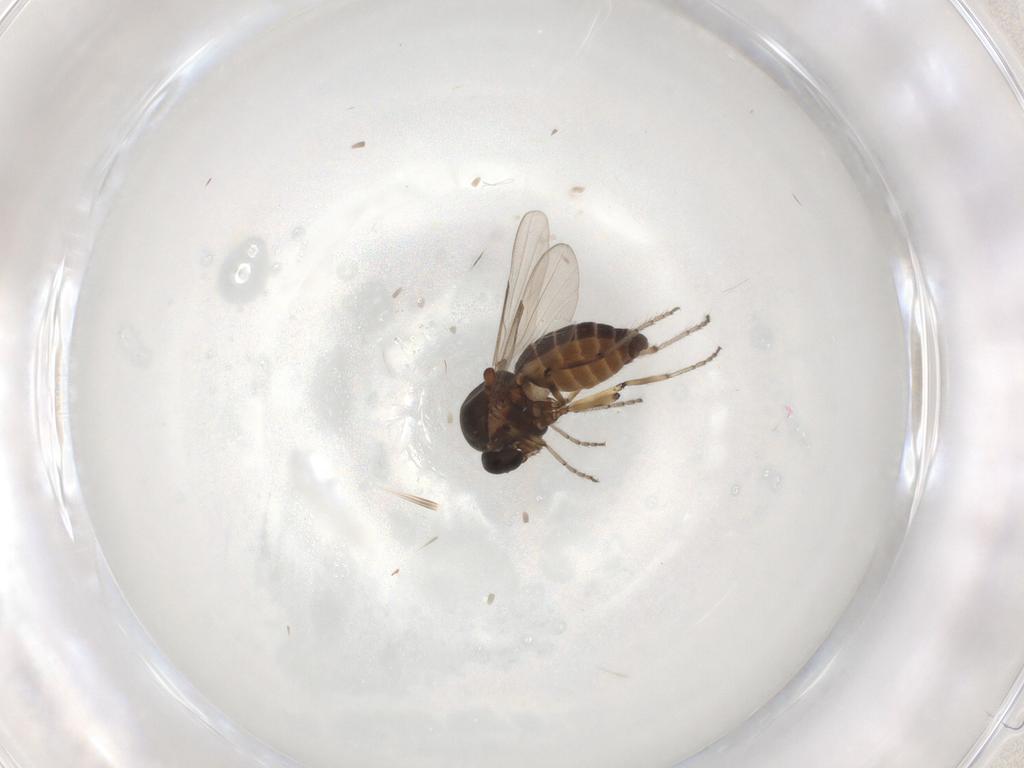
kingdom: Animalia
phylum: Arthropoda
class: Insecta
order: Diptera
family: Ceratopogonidae
